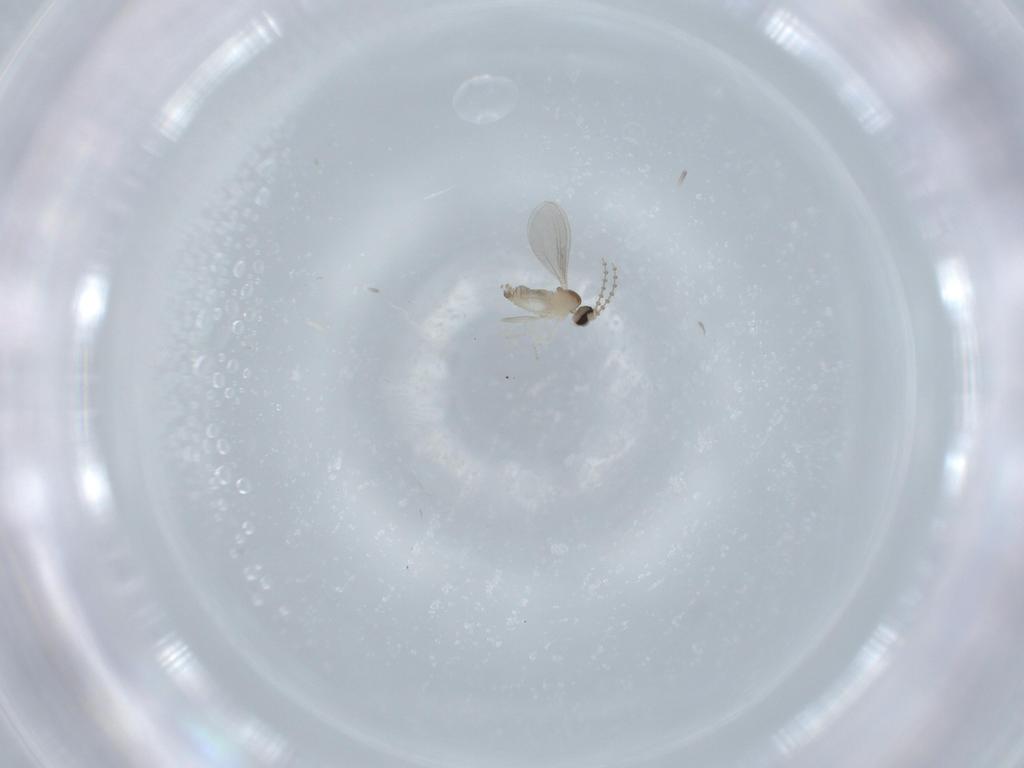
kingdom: Animalia
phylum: Arthropoda
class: Insecta
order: Diptera
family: Cecidomyiidae
